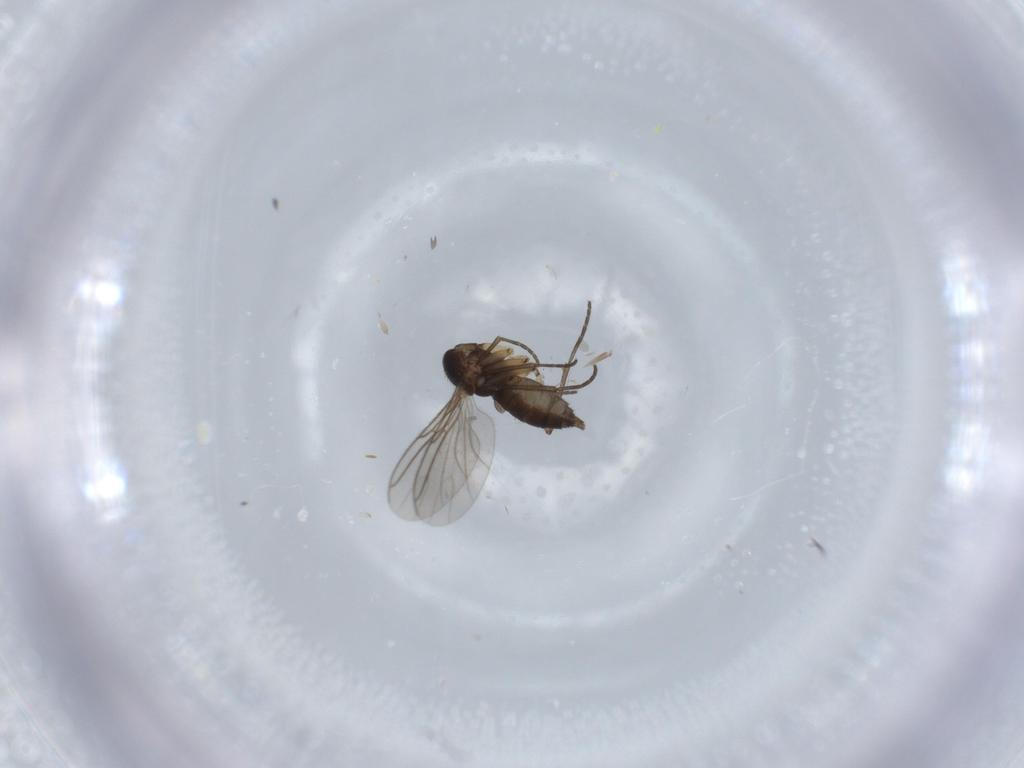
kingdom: Animalia
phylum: Arthropoda
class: Insecta
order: Diptera
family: Sciaridae
